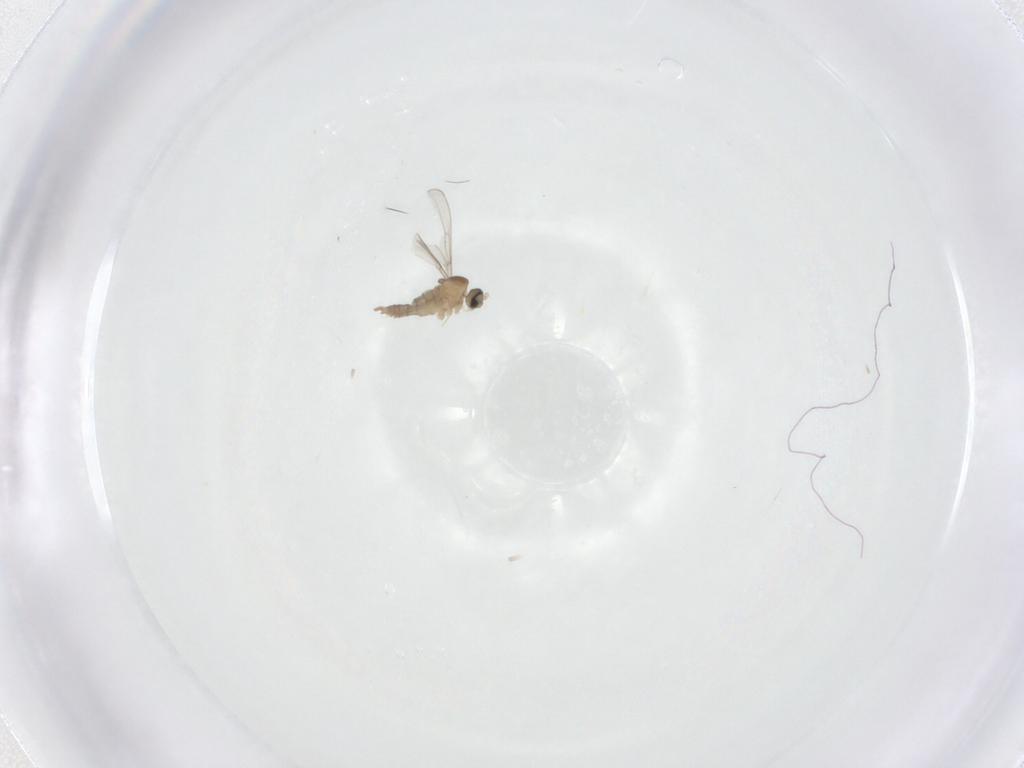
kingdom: Animalia
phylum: Arthropoda
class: Insecta
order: Diptera
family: Cecidomyiidae
